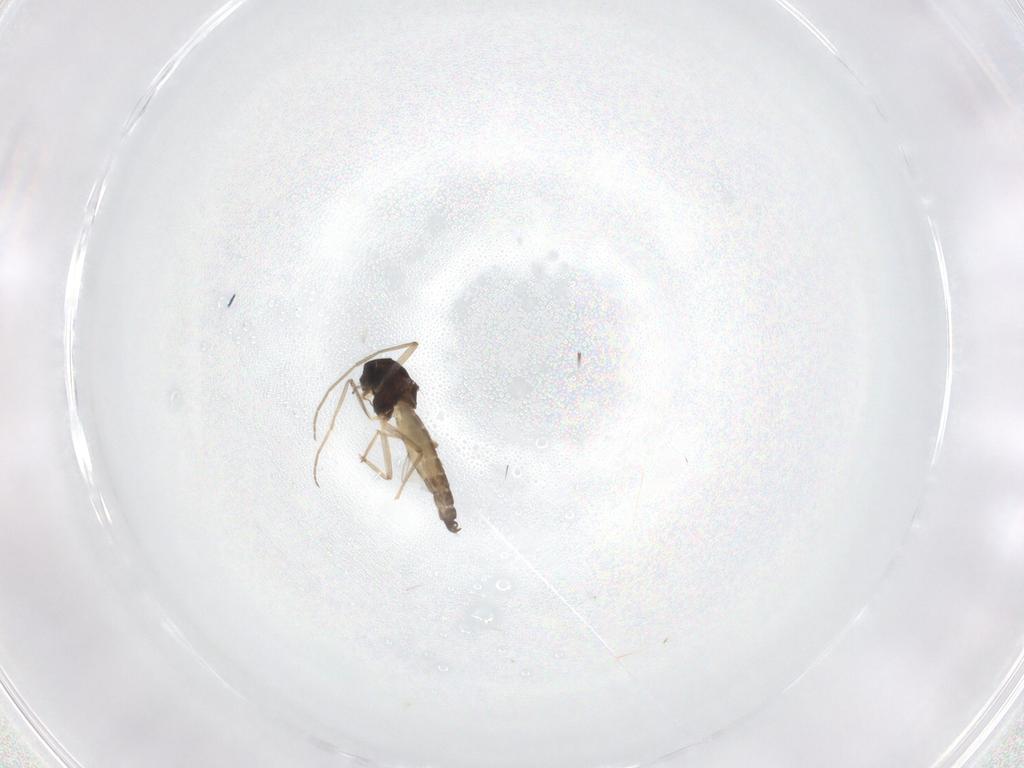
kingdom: Animalia
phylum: Arthropoda
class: Insecta
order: Diptera
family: Chironomidae
